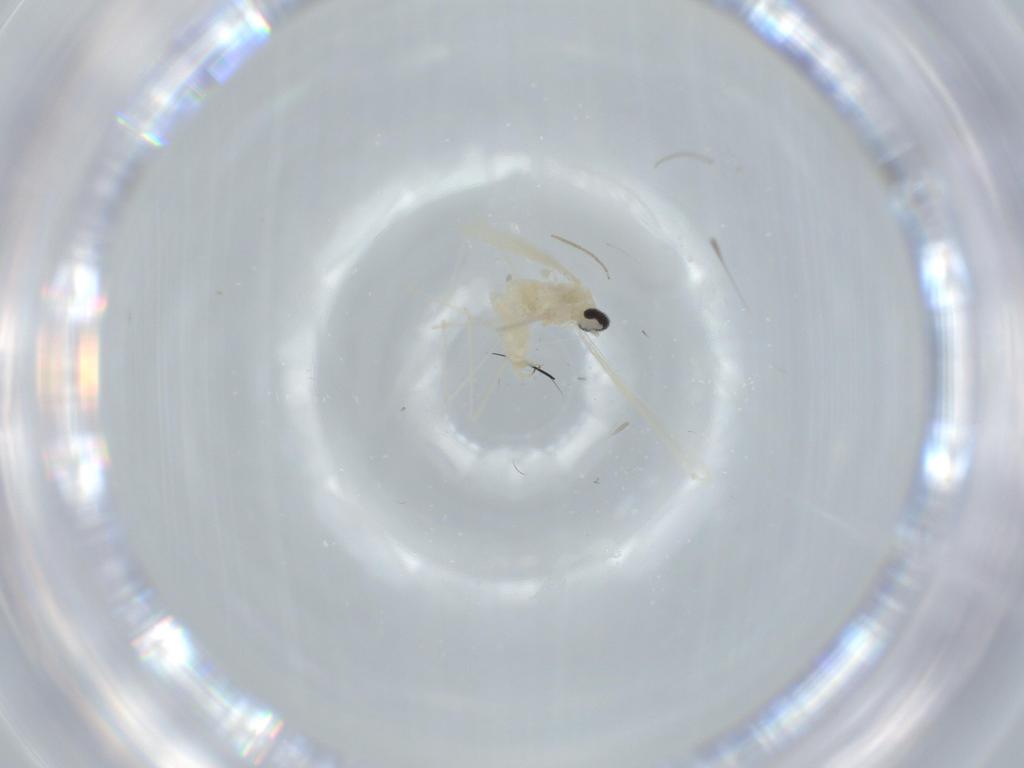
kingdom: Animalia
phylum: Arthropoda
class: Insecta
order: Diptera
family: Cecidomyiidae
